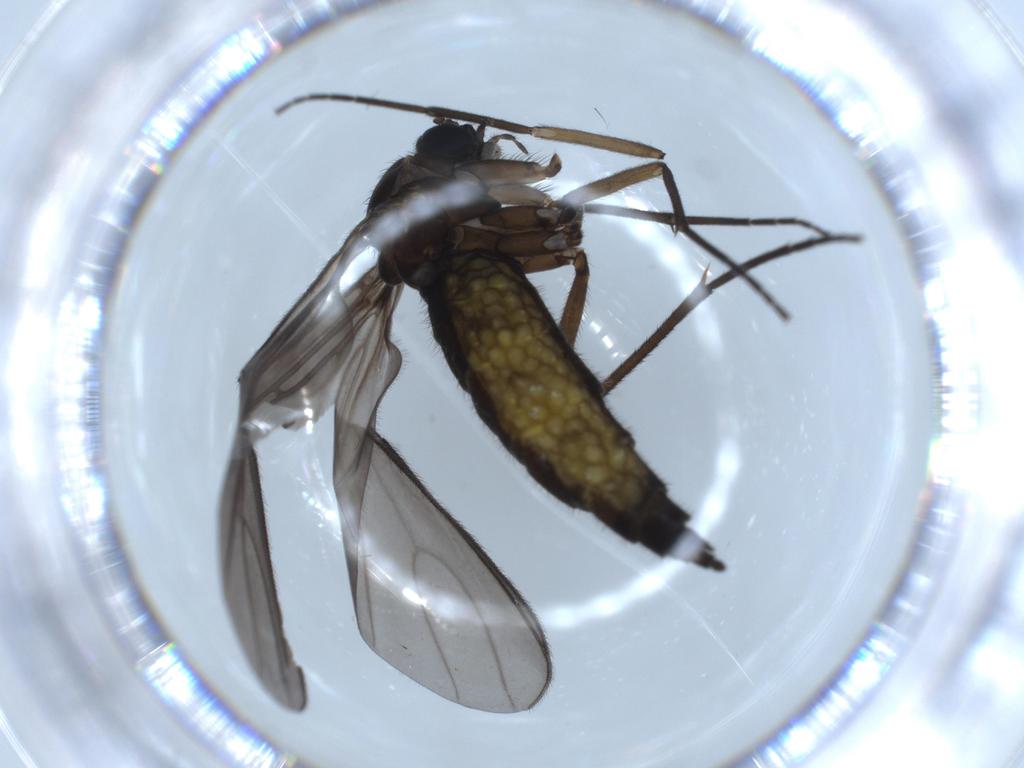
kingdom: Animalia
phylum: Arthropoda
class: Insecta
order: Diptera
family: Sciaridae
